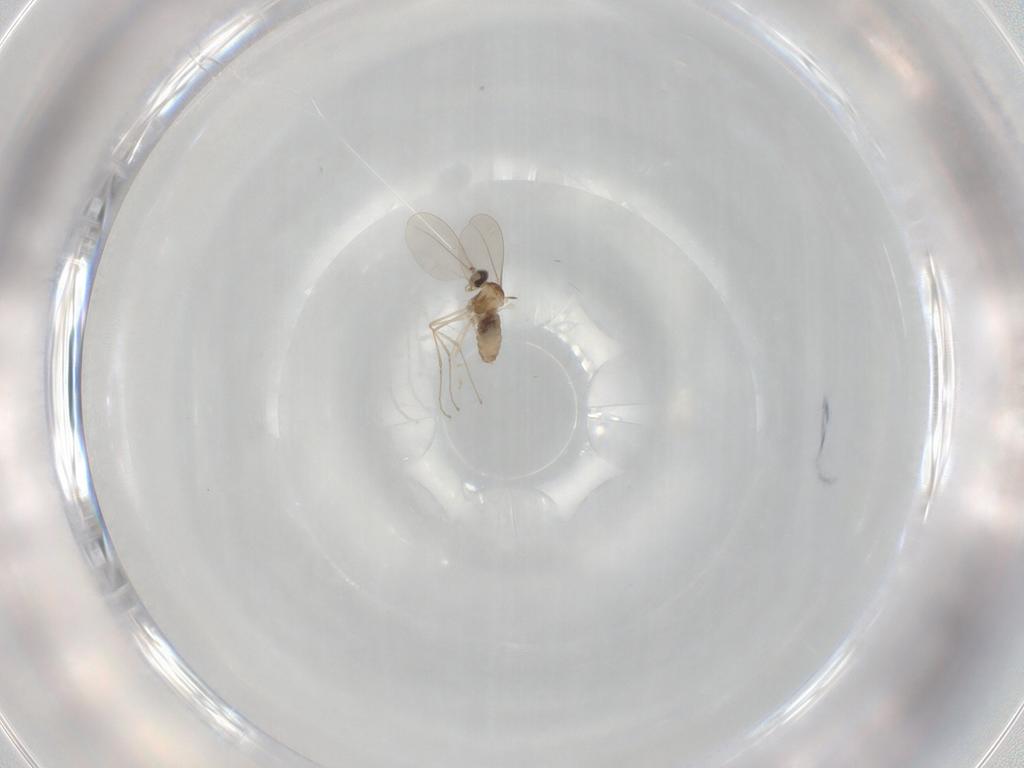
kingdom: Animalia
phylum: Arthropoda
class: Insecta
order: Diptera
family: Cecidomyiidae
